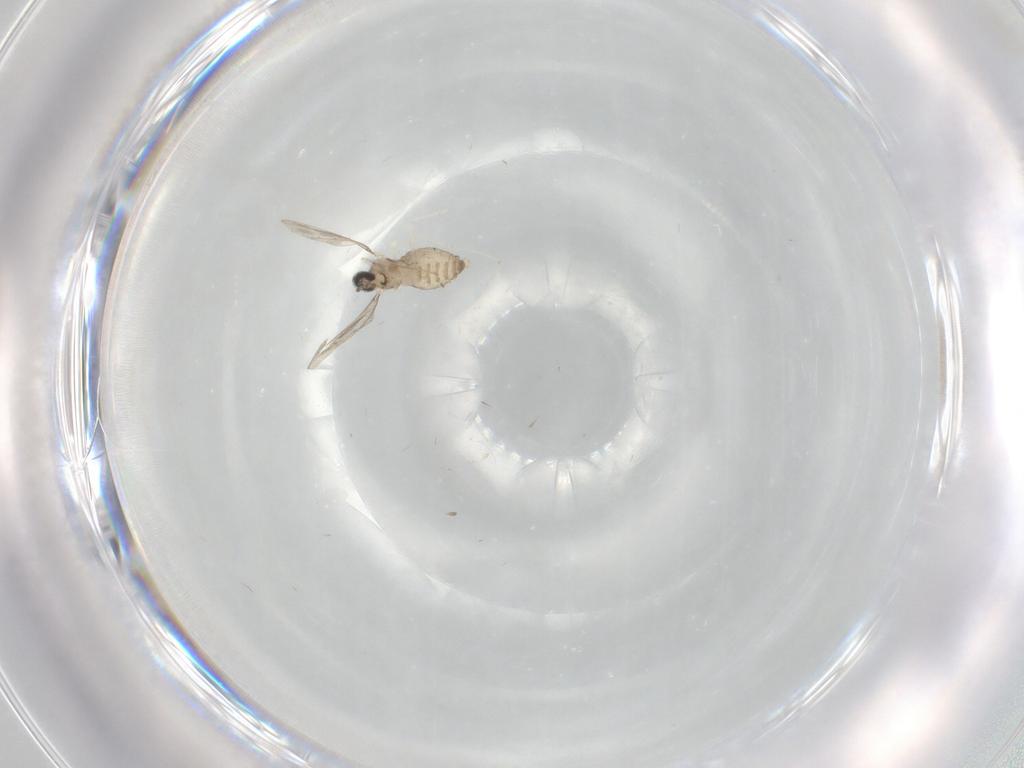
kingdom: Animalia
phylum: Arthropoda
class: Insecta
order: Diptera
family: Cecidomyiidae
